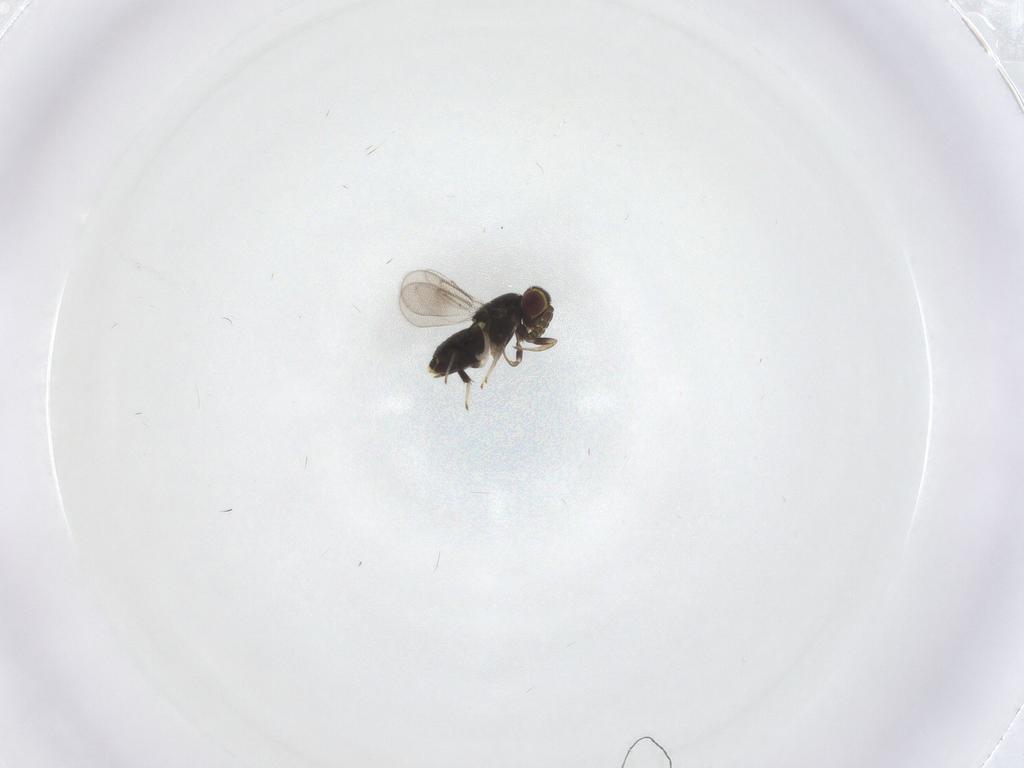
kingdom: Animalia
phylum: Arthropoda
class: Insecta
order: Hymenoptera
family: Aphelinidae
